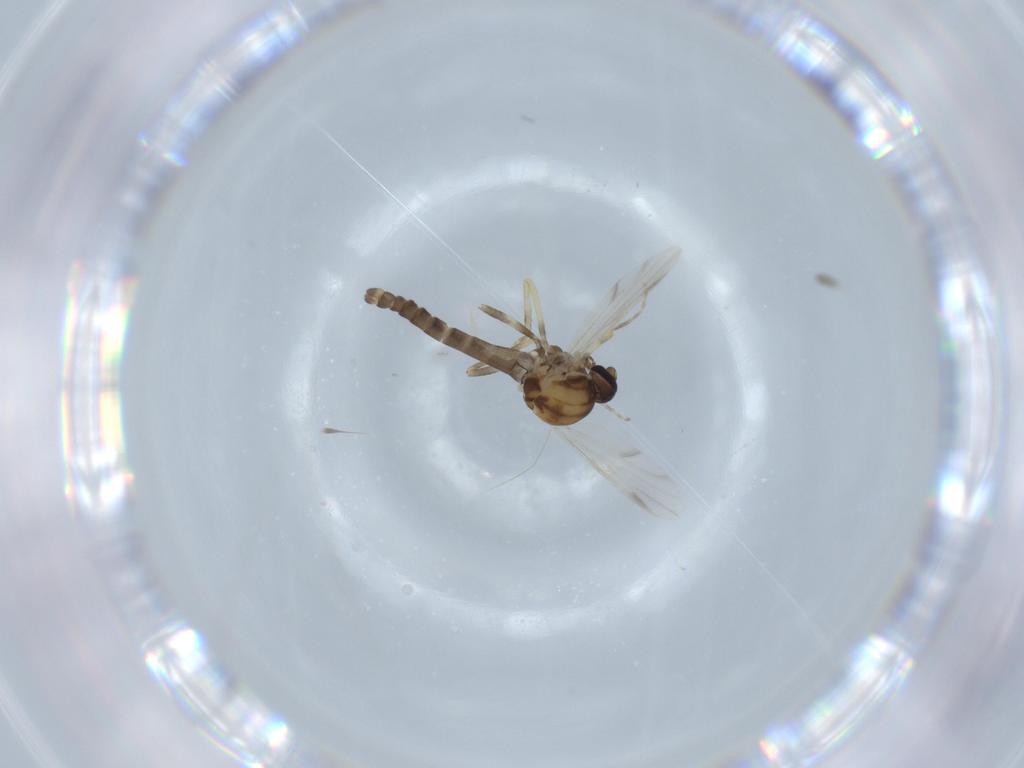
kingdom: Animalia
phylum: Arthropoda
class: Insecta
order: Diptera
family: Ceratopogonidae
